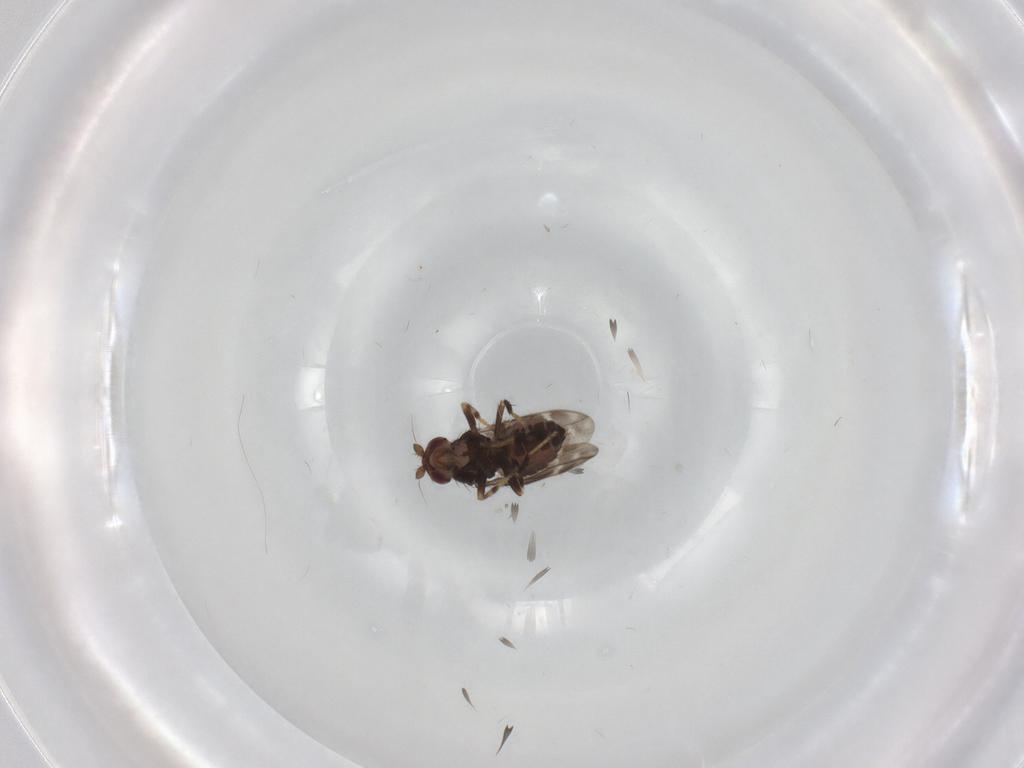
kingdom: Animalia
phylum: Arthropoda
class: Insecta
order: Diptera
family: Sphaeroceridae
